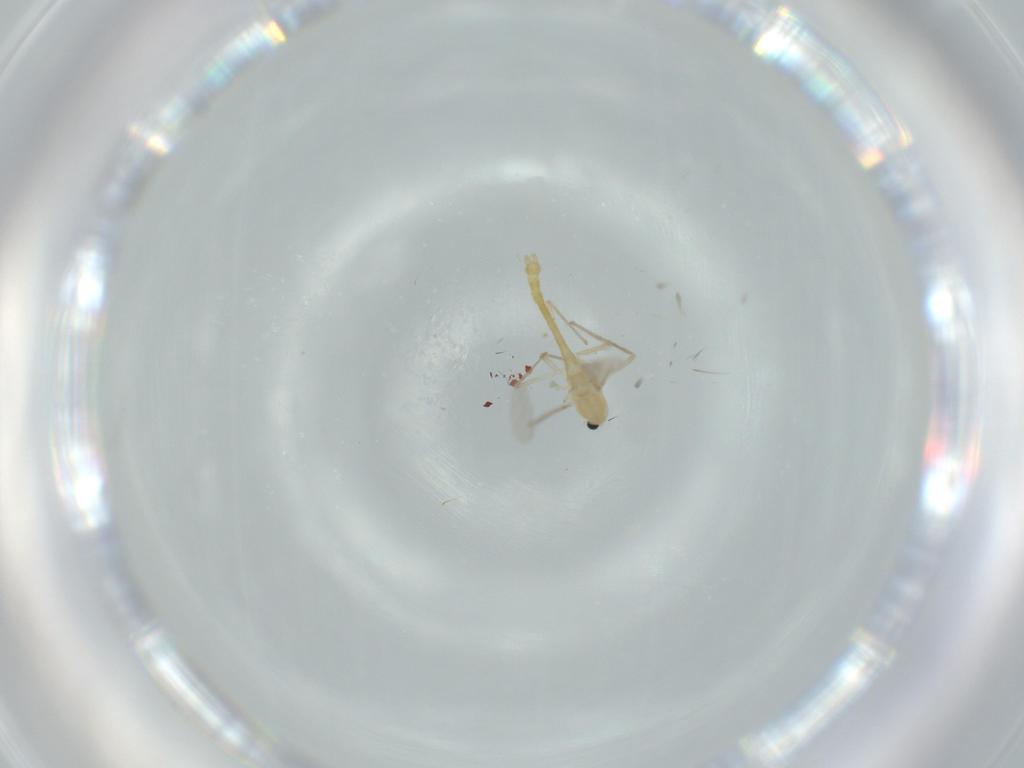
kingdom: Animalia
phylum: Arthropoda
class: Insecta
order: Diptera
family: Chironomidae
